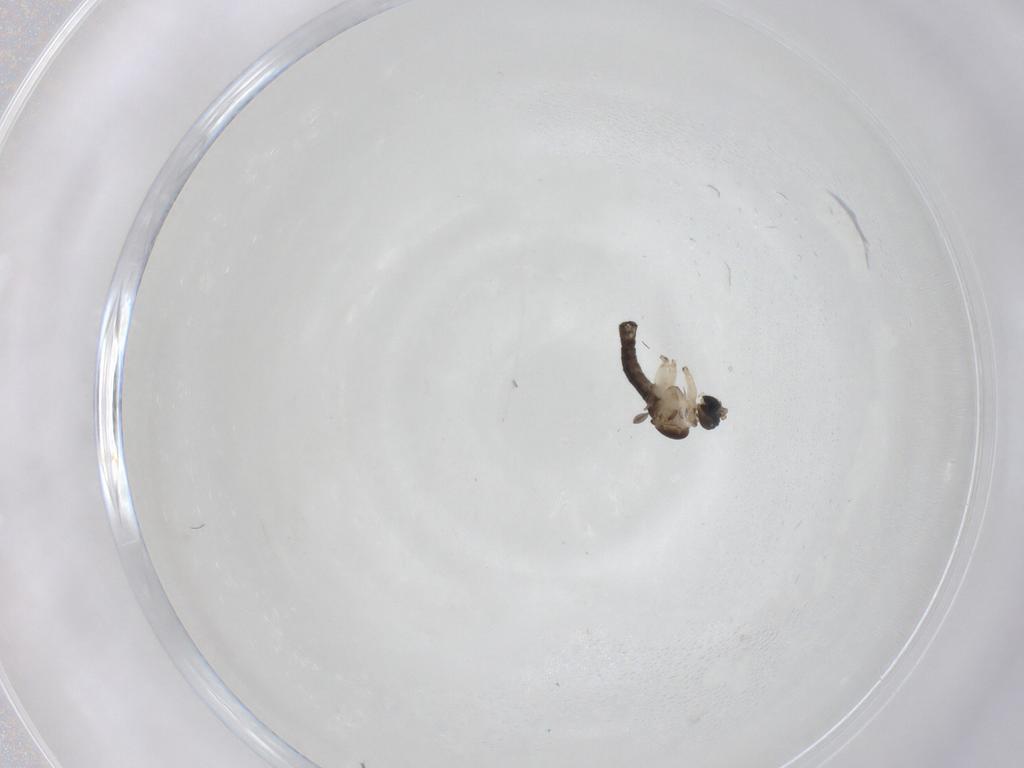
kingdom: Animalia
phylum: Arthropoda
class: Insecta
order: Diptera
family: Sciaridae
